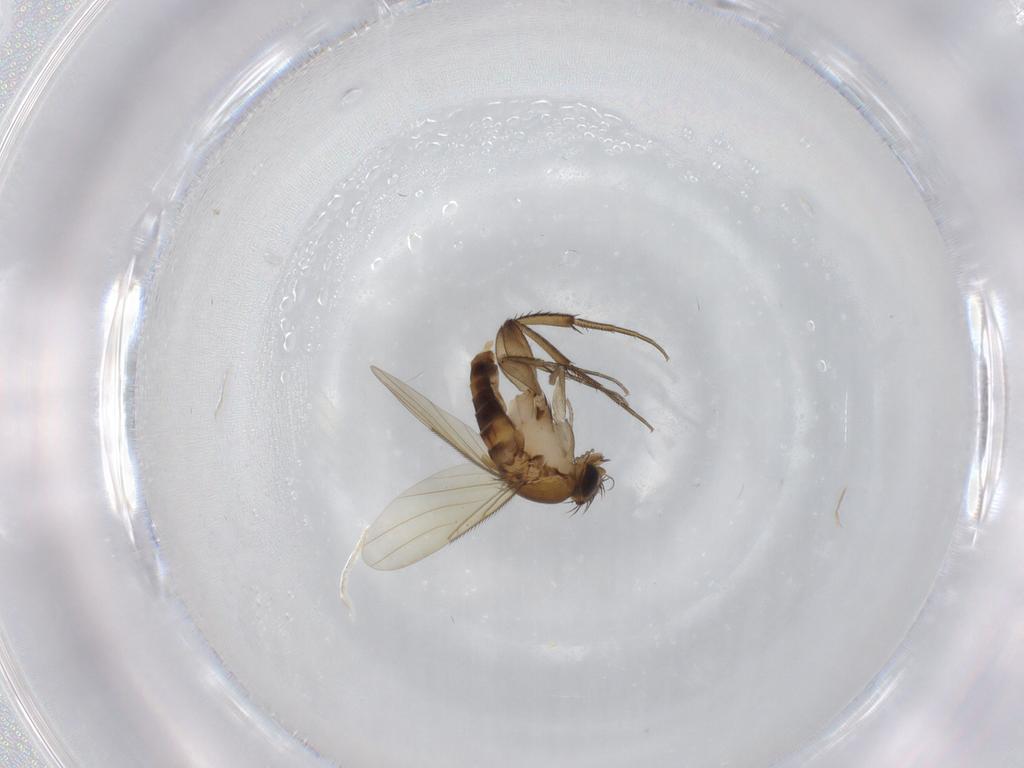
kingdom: Animalia
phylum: Arthropoda
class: Insecta
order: Diptera
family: Phoridae
